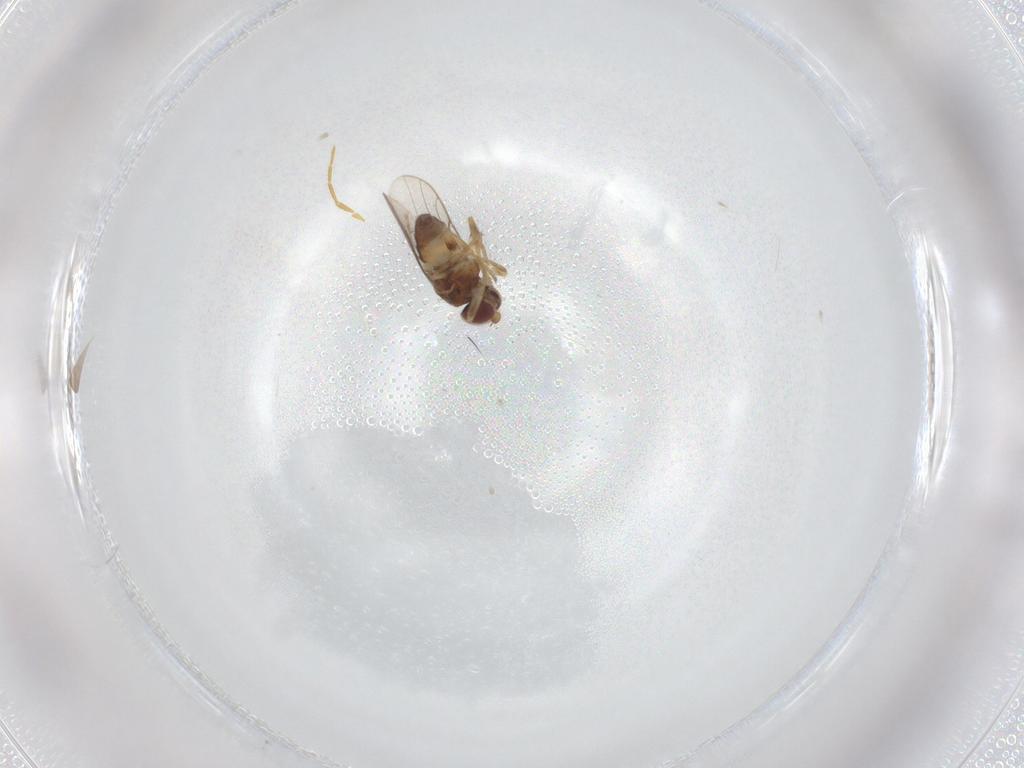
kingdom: Animalia
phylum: Arthropoda
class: Insecta
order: Diptera
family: Chloropidae
